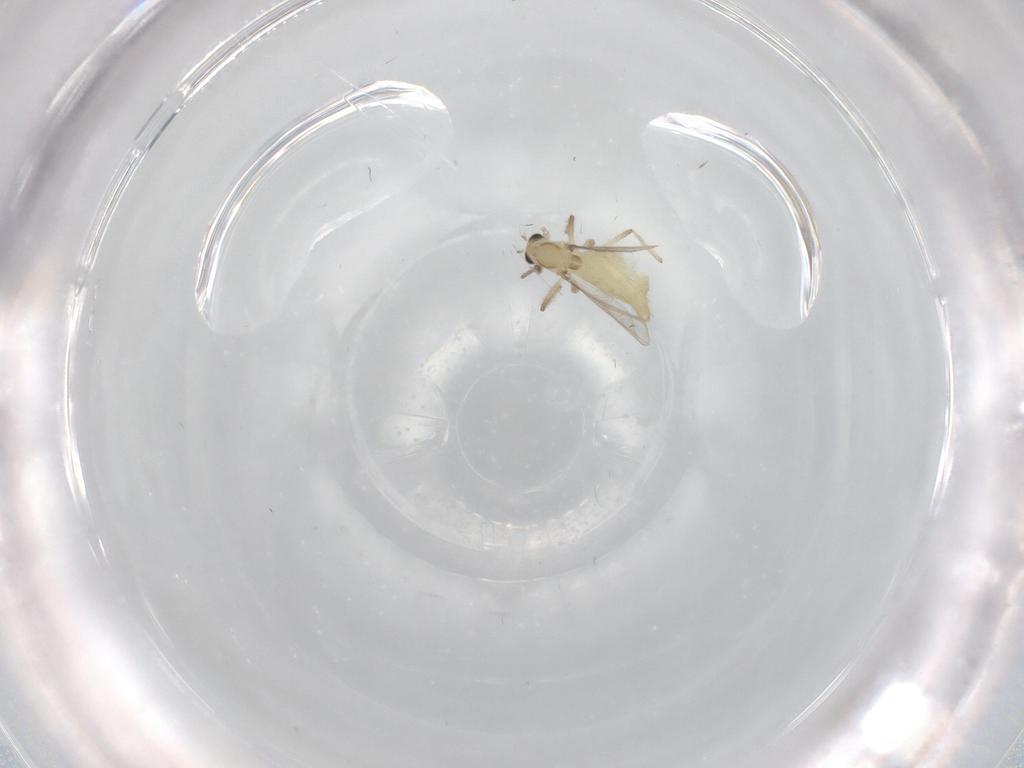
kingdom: Animalia
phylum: Arthropoda
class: Insecta
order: Diptera
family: Chironomidae
